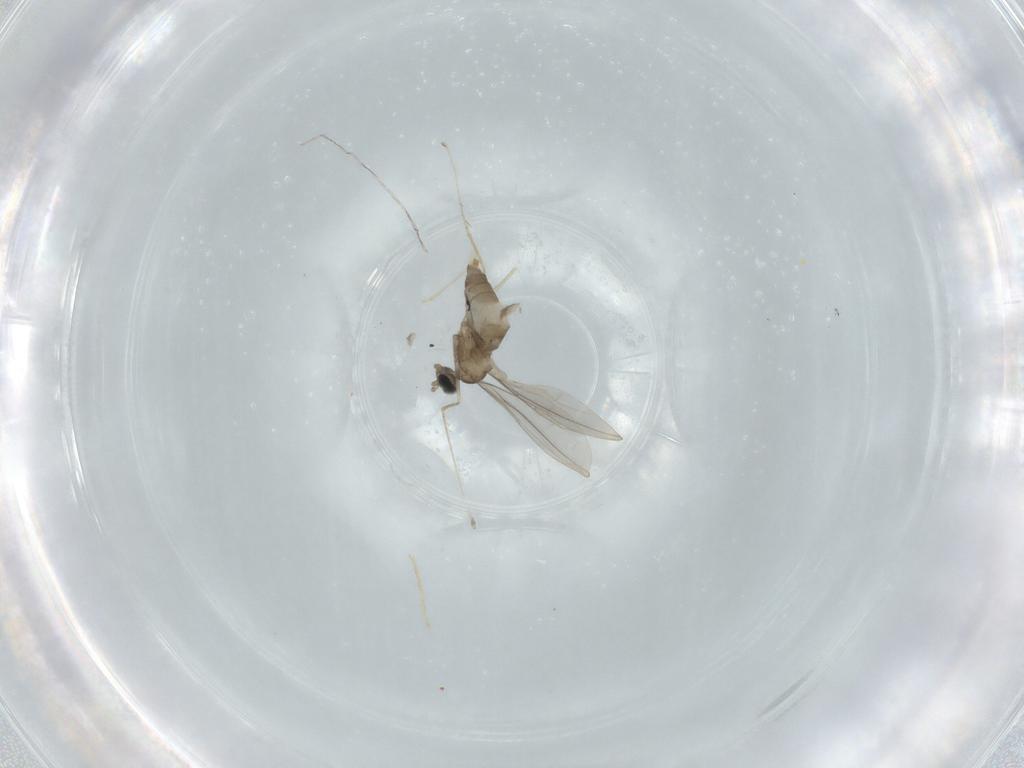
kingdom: Animalia
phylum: Arthropoda
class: Insecta
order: Diptera
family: Cecidomyiidae
